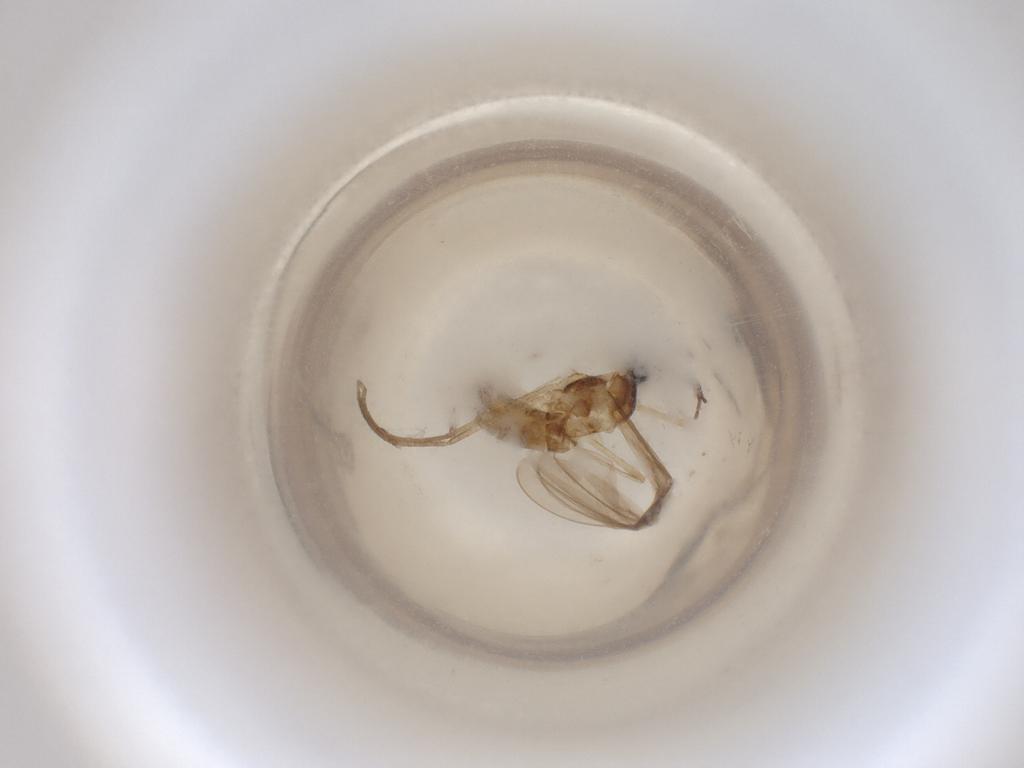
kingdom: Animalia
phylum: Arthropoda
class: Insecta
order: Diptera
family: Cecidomyiidae
